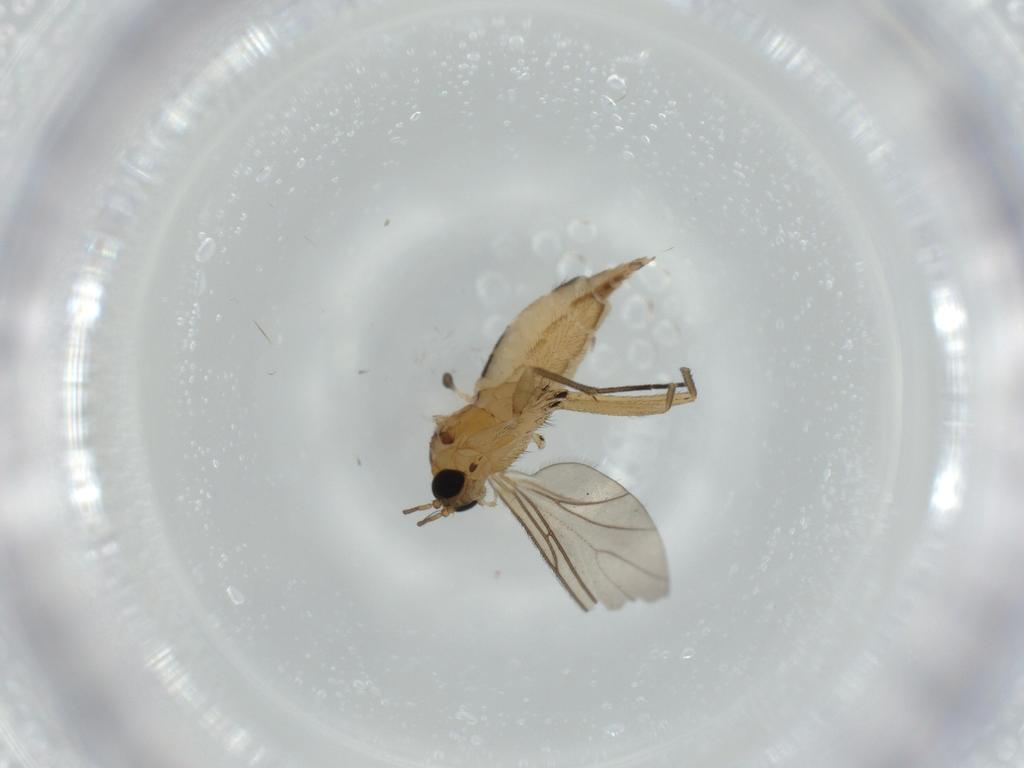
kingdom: Animalia
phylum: Arthropoda
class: Insecta
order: Diptera
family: Sciaridae
